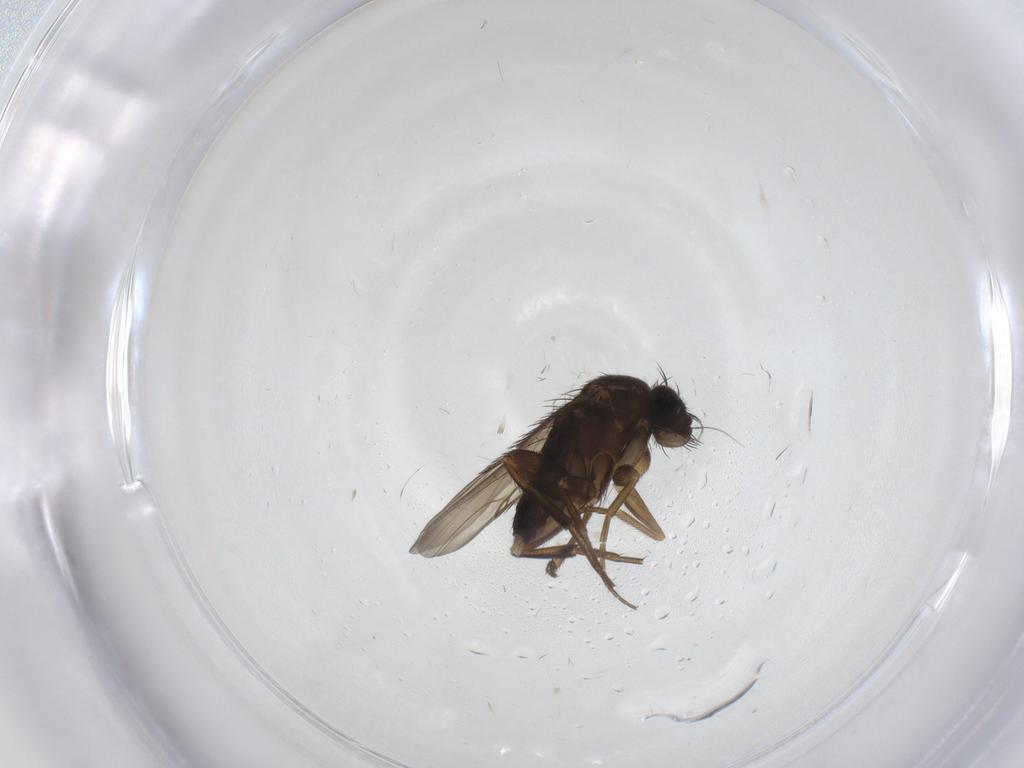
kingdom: Animalia
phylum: Arthropoda
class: Insecta
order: Diptera
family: Phoridae
